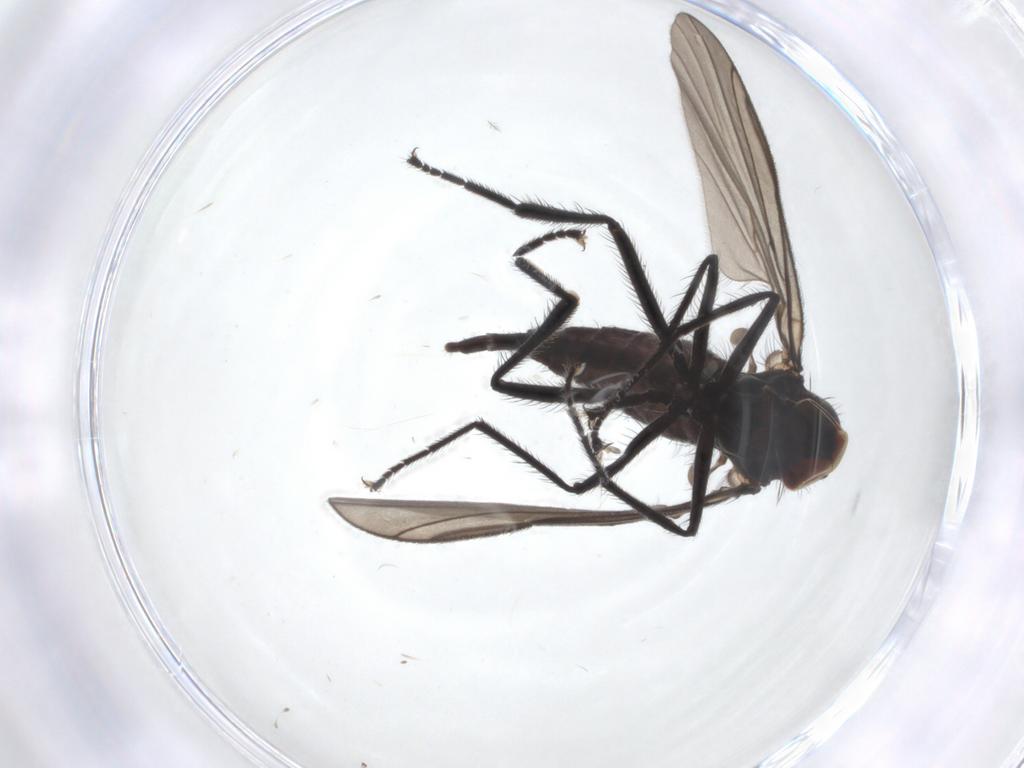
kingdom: Animalia
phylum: Arthropoda
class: Insecta
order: Diptera
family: Hybotidae
